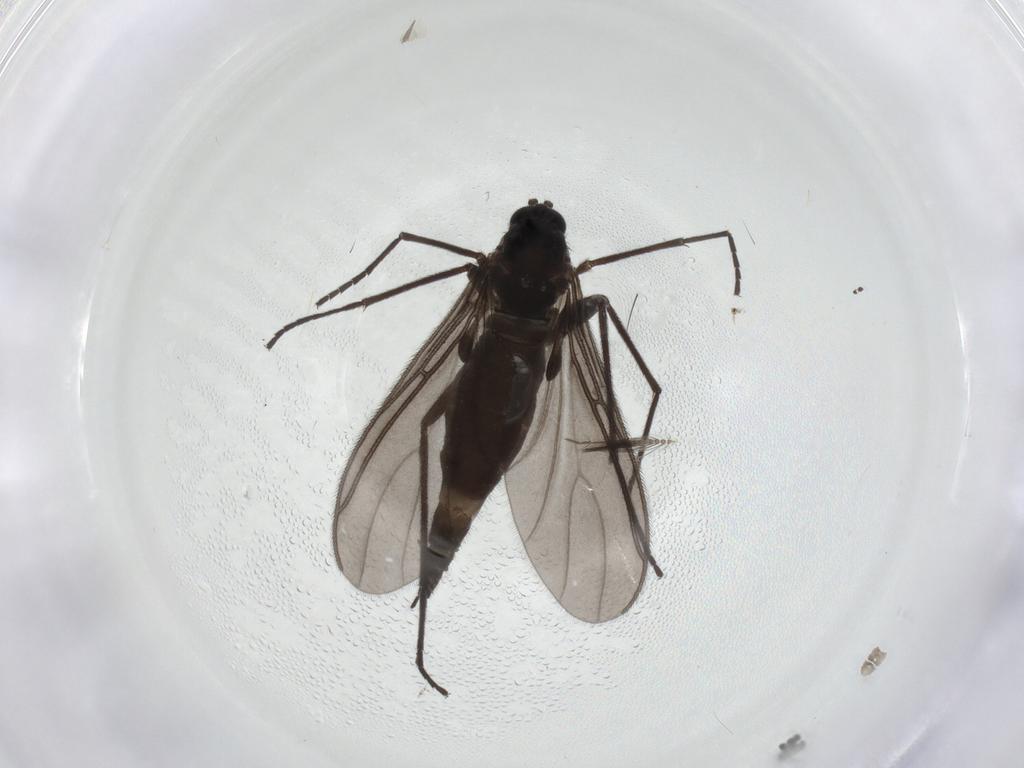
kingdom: Animalia
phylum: Arthropoda
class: Insecta
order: Diptera
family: Sciaridae
